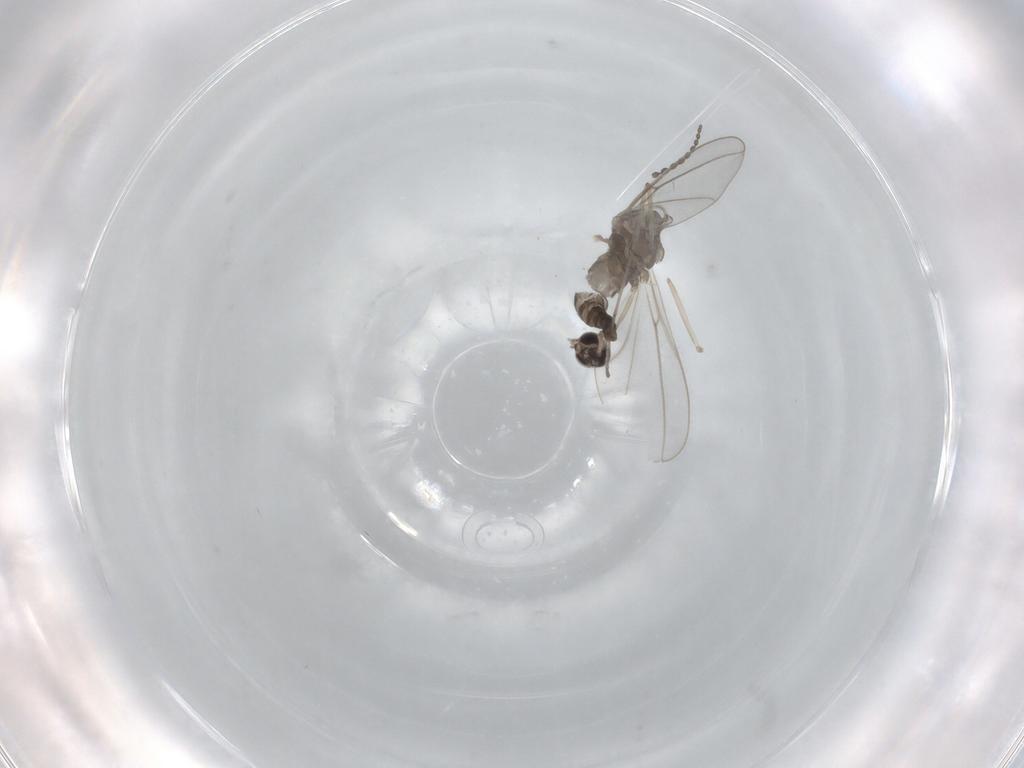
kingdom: Animalia
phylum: Arthropoda
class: Insecta
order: Diptera
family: Cecidomyiidae
